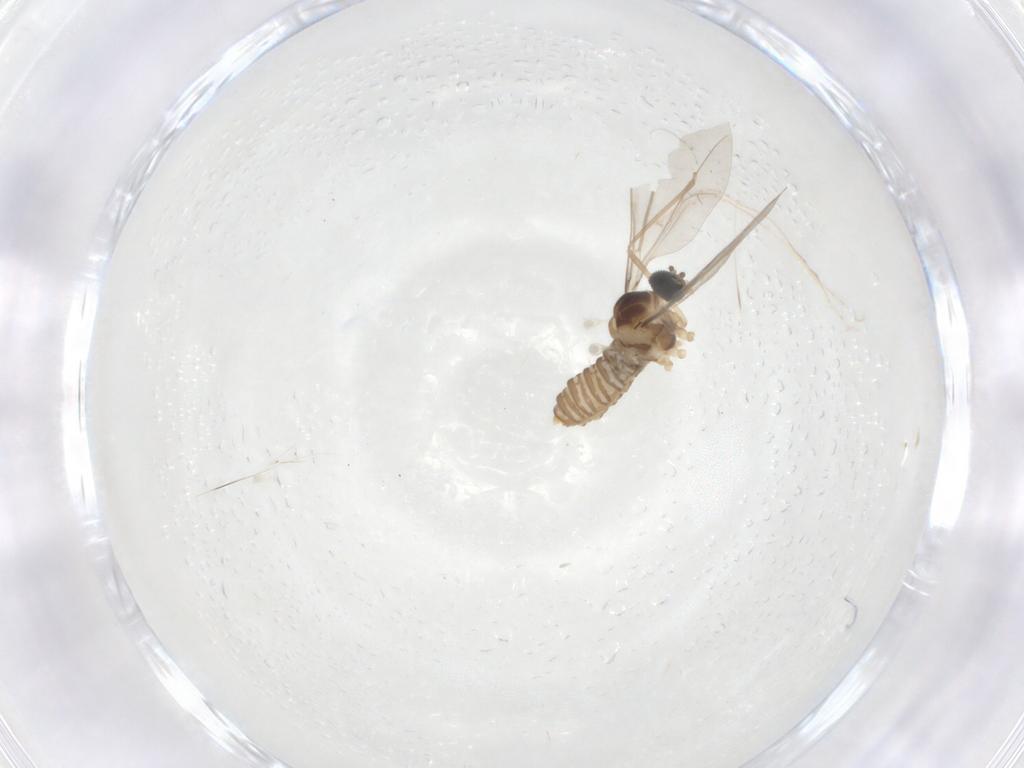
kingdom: Animalia
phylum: Arthropoda
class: Insecta
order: Diptera
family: Cecidomyiidae
